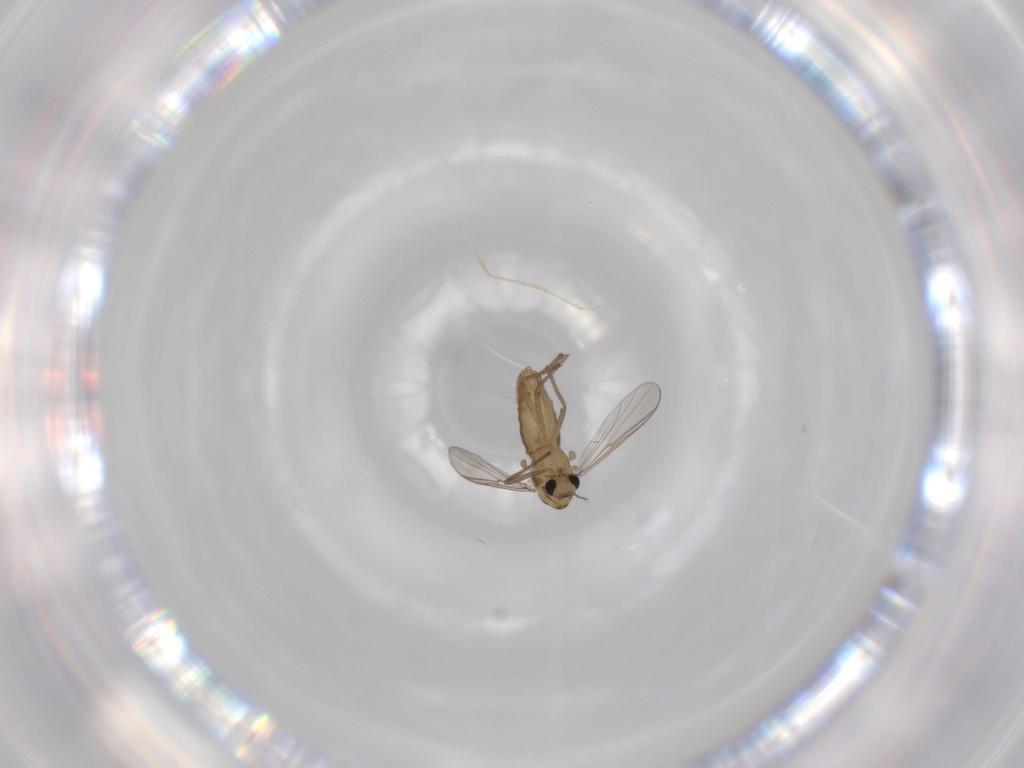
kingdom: Animalia
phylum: Arthropoda
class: Insecta
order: Diptera
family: Chironomidae
